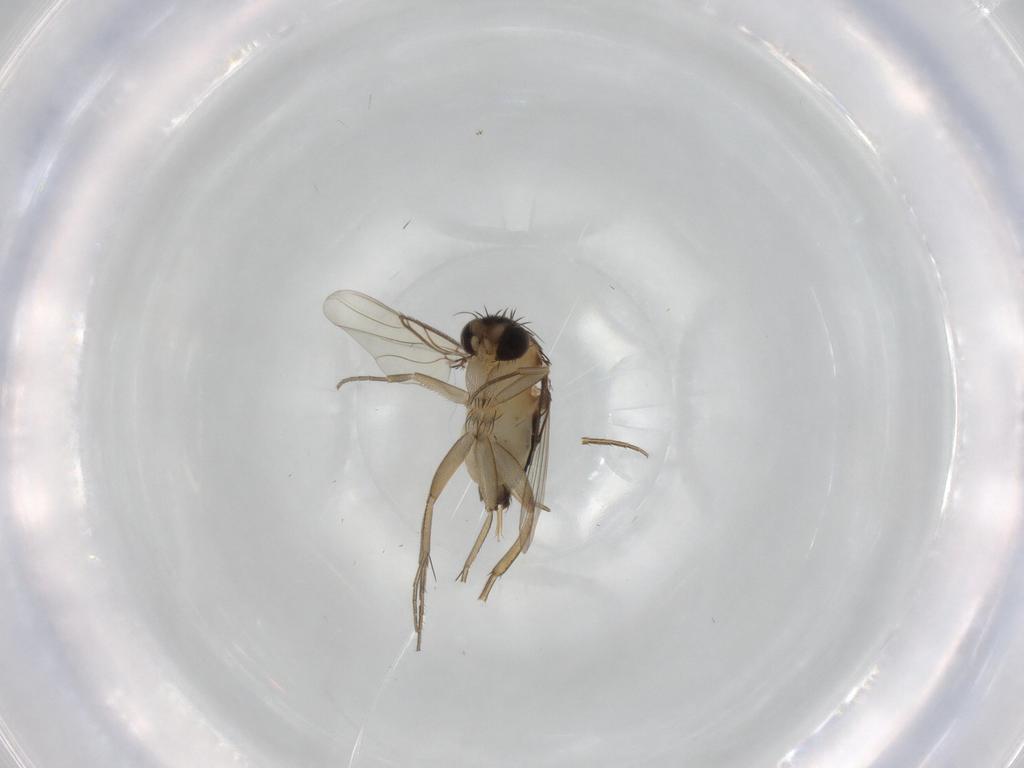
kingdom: Animalia
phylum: Arthropoda
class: Insecta
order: Diptera
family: Phoridae
